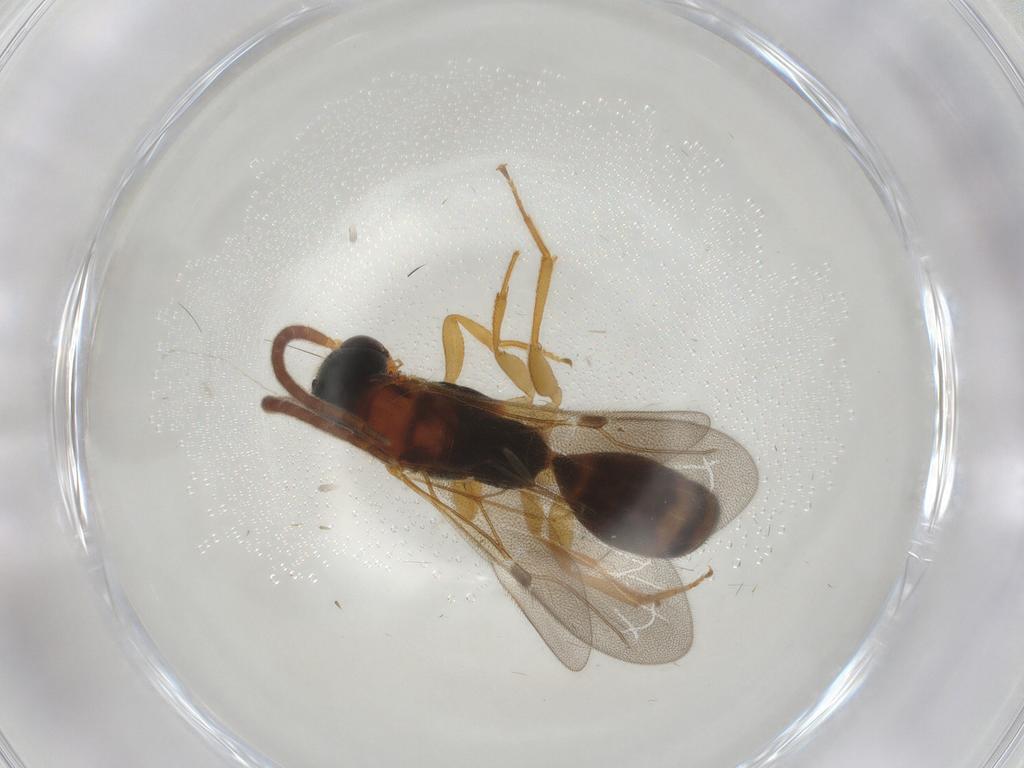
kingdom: Animalia
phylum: Arthropoda
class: Insecta
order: Hymenoptera
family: Bethylidae
